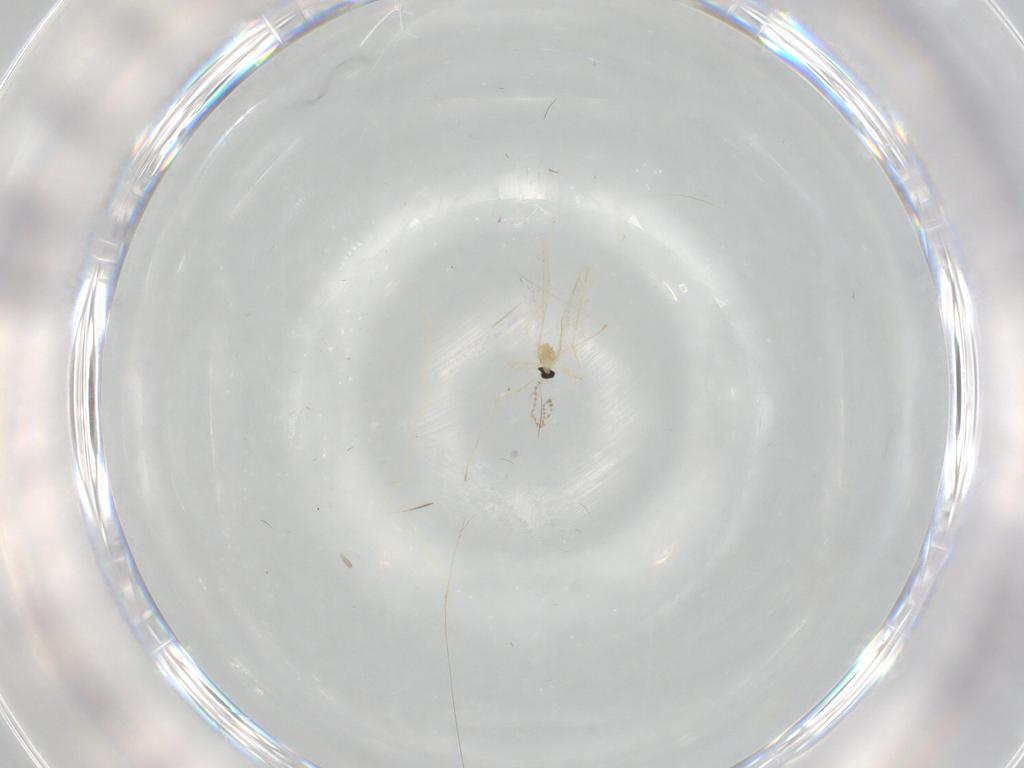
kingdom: Animalia
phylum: Arthropoda
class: Insecta
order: Diptera
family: Cecidomyiidae
